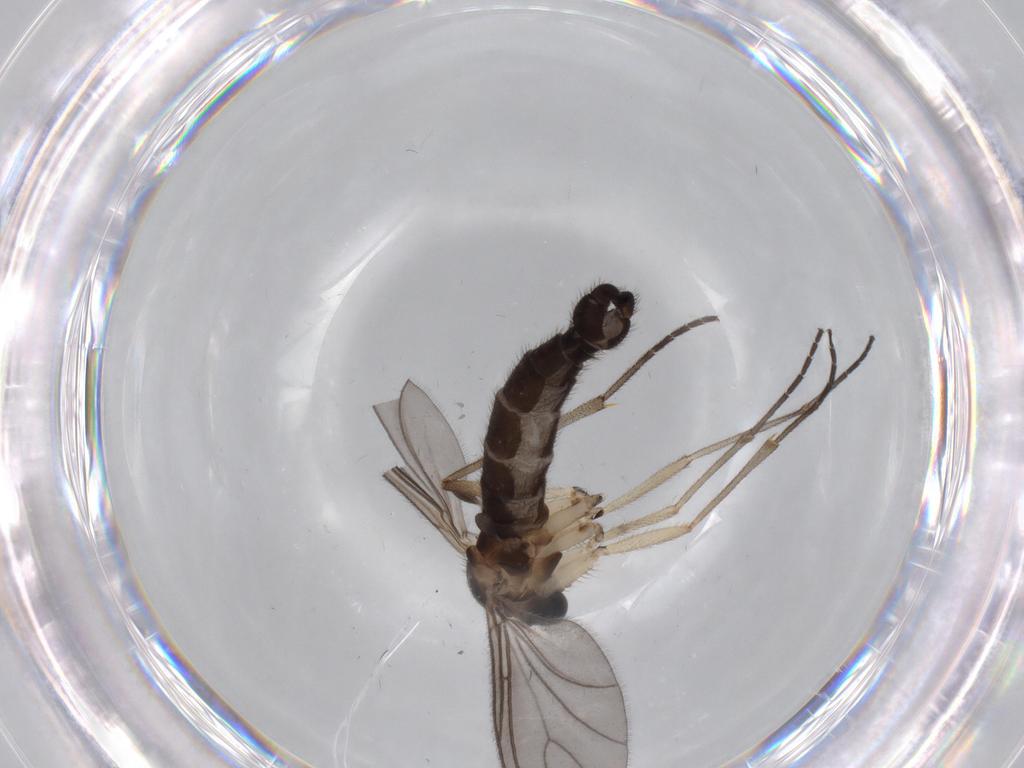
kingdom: Animalia
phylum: Arthropoda
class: Insecta
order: Diptera
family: Sciaridae
